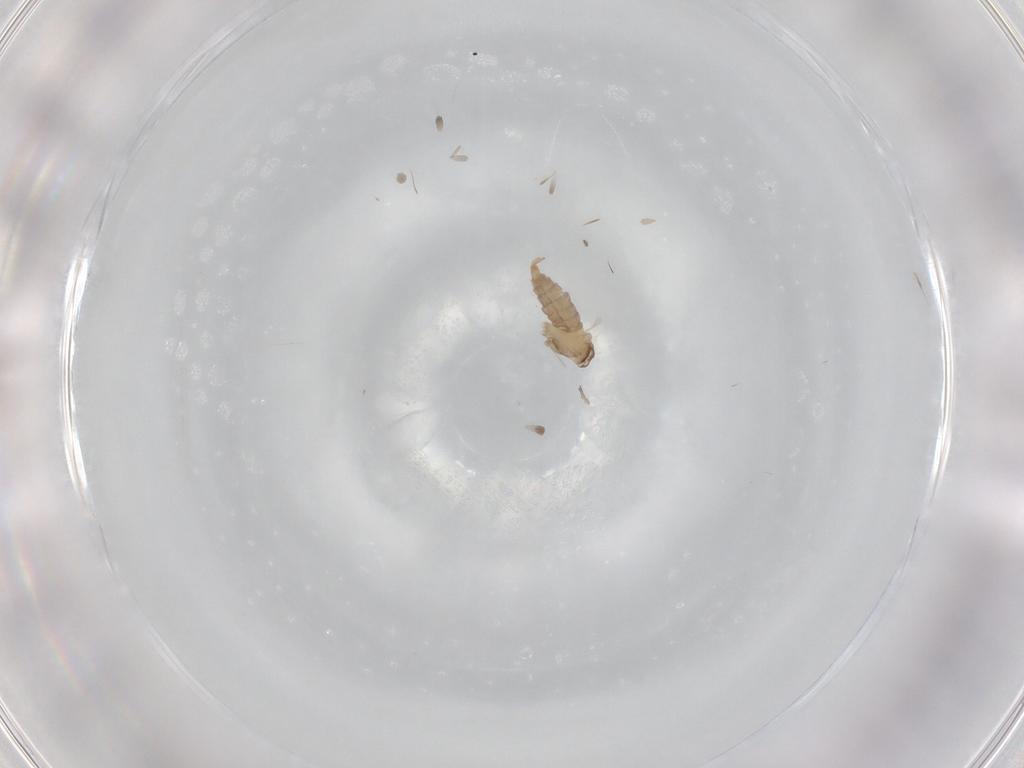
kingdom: Animalia
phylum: Arthropoda
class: Insecta
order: Diptera
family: Cecidomyiidae
